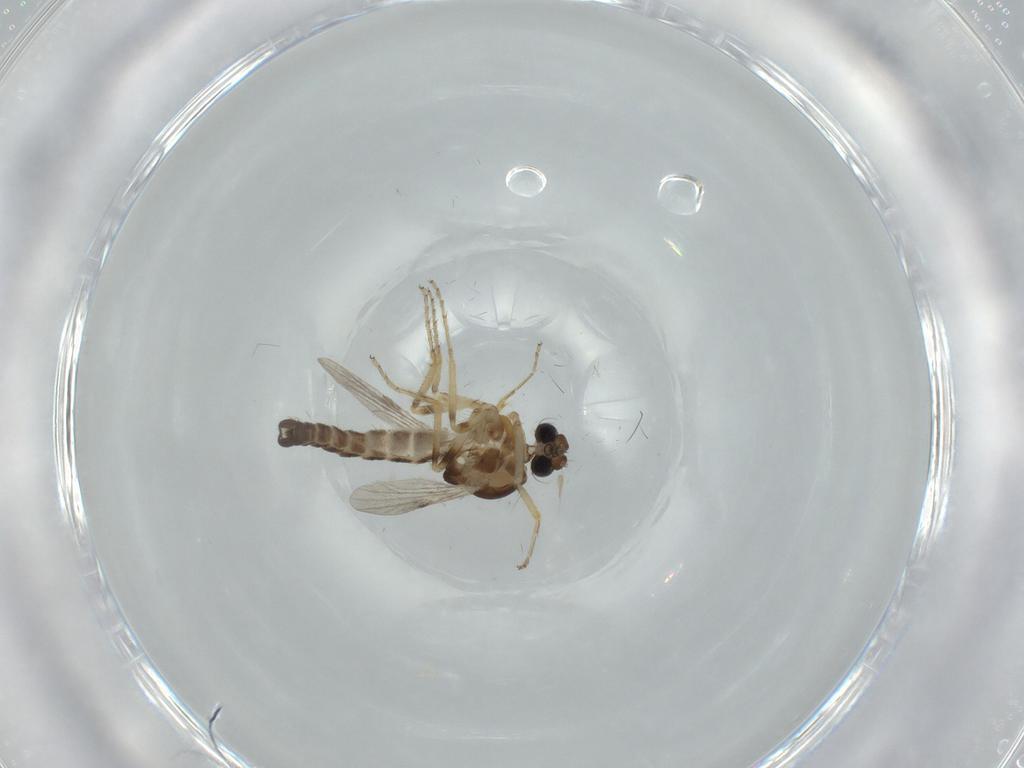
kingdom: Animalia
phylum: Arthropoda
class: Insecta
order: Diptera
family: Ceratopogonidae
